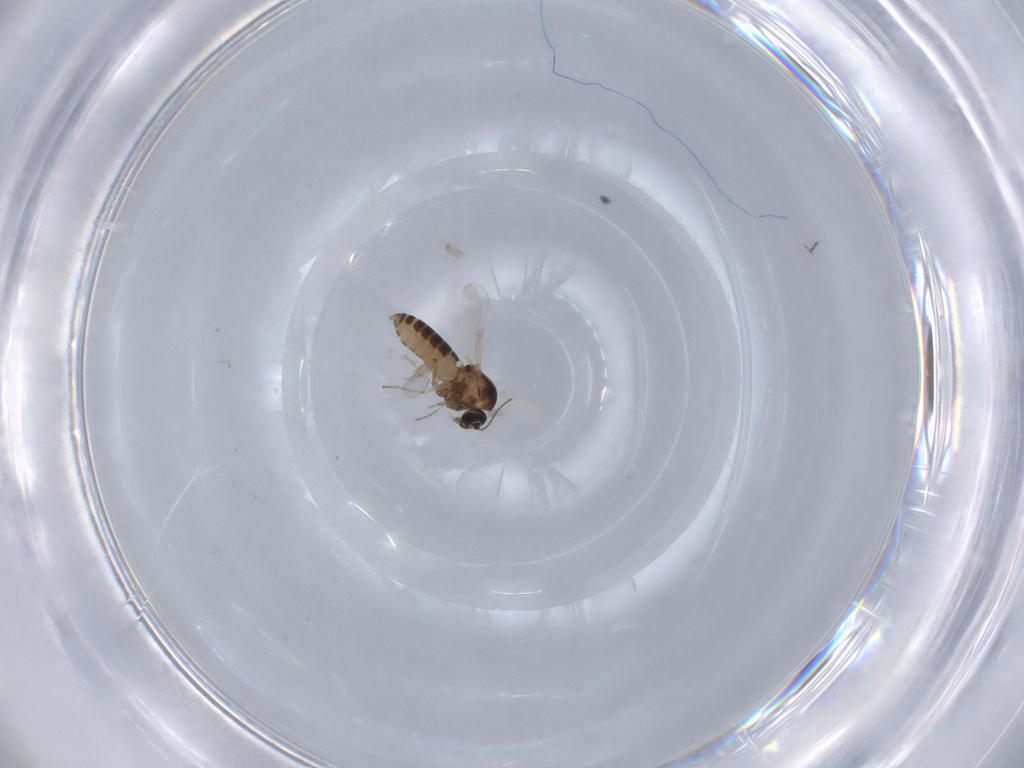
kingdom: Animalia
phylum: Arthropoda
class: Insecta
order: Diptera
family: Ceratopogonidae
